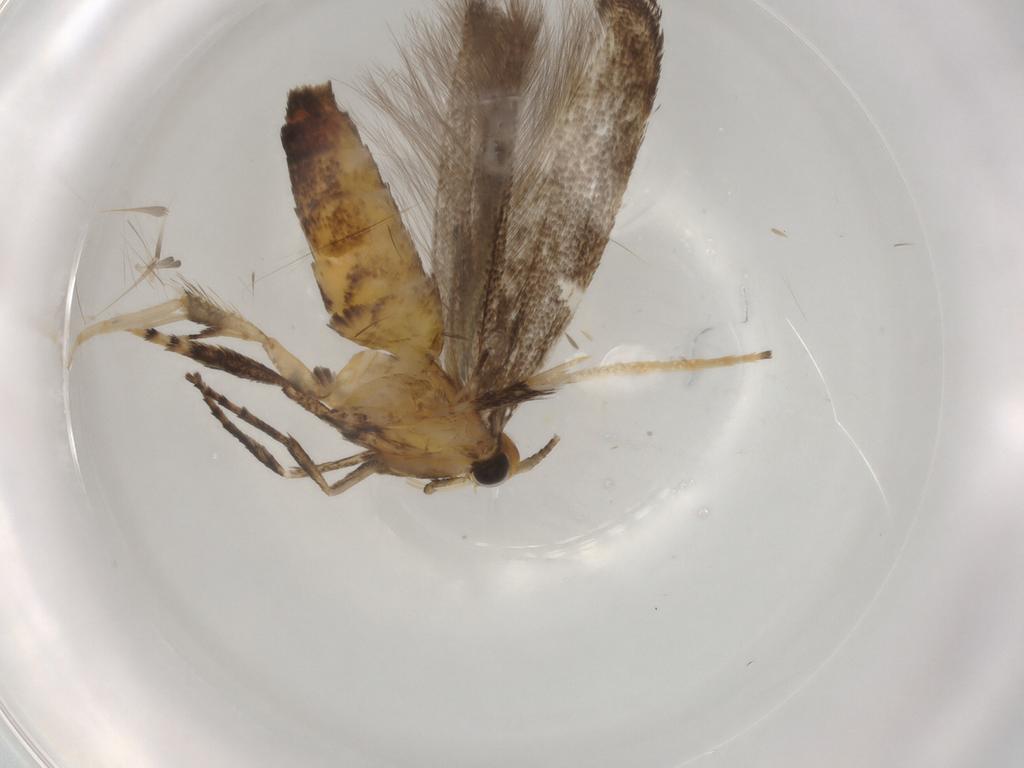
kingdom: Animalia
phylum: Arthropoda
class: Insecta
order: Lepidoptera
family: Gracillariidae
